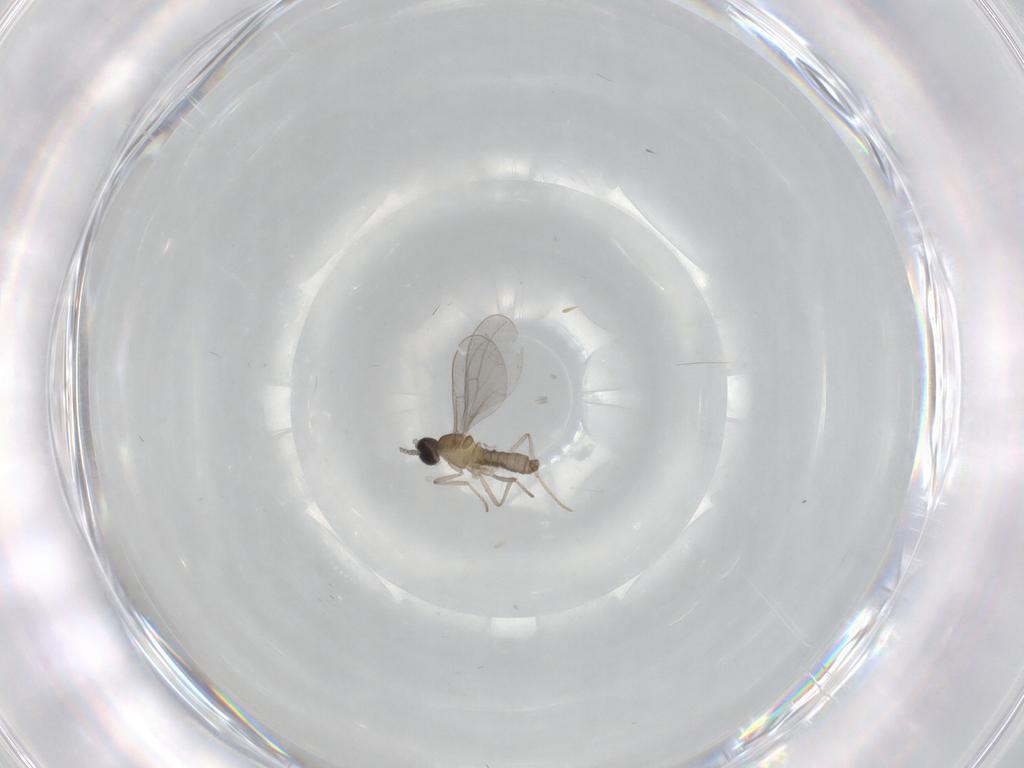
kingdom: Animalia
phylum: Arthropoda
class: Insecta
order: Diptera
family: Cecidomyiidae
